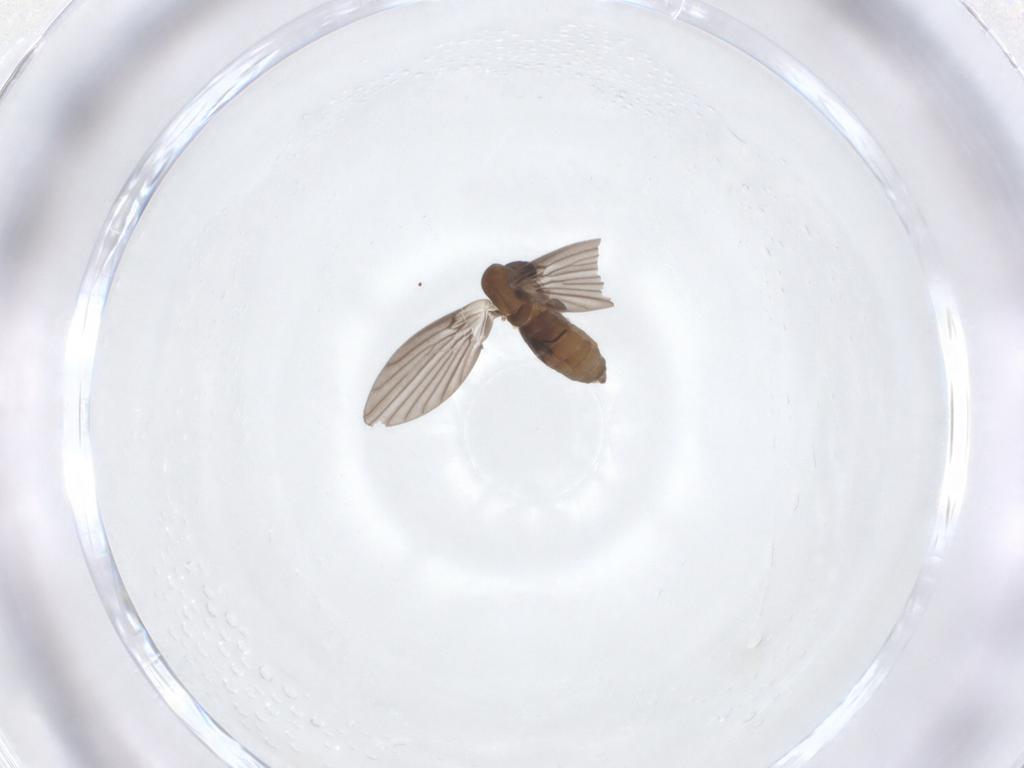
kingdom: Animalia
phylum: Arthropoda
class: Insecta
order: Diptera
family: Psychodidae
